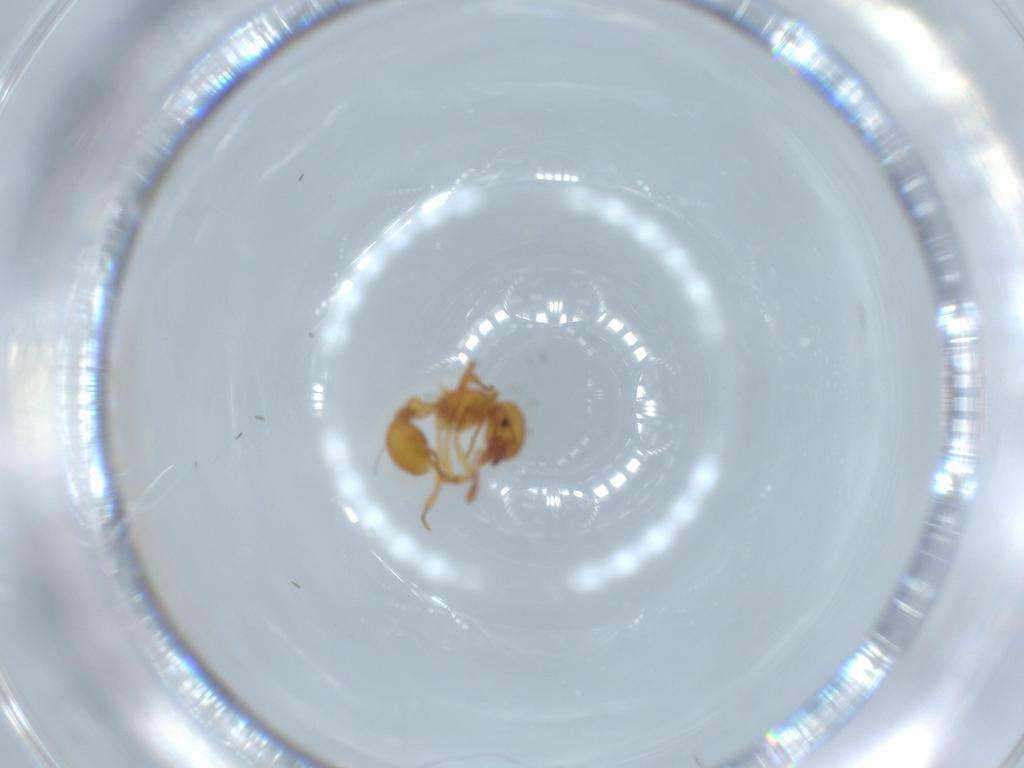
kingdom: Animalia
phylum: Arthropoda
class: Insecta
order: Hymenoptera
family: Formicidae
